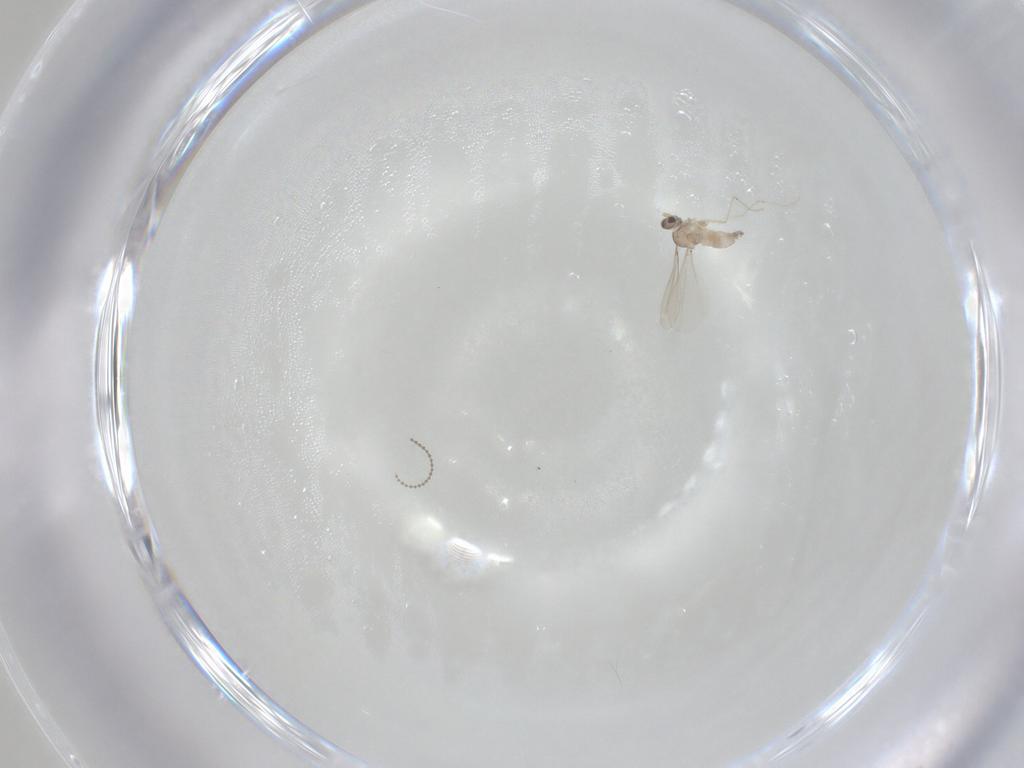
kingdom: Animalia
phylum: Arthropoda
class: Insecta
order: Diptera
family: Cecidomyiidae
